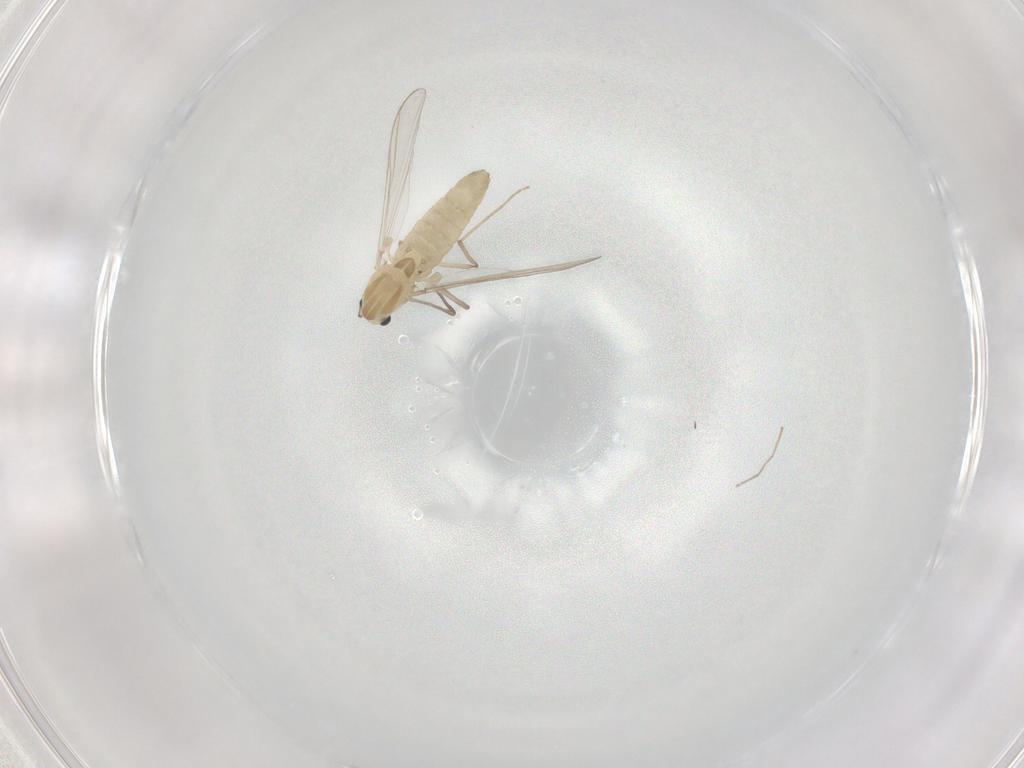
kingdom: Animalia
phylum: Arthropoda
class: Insecta
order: Diptera
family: Chironomidae
